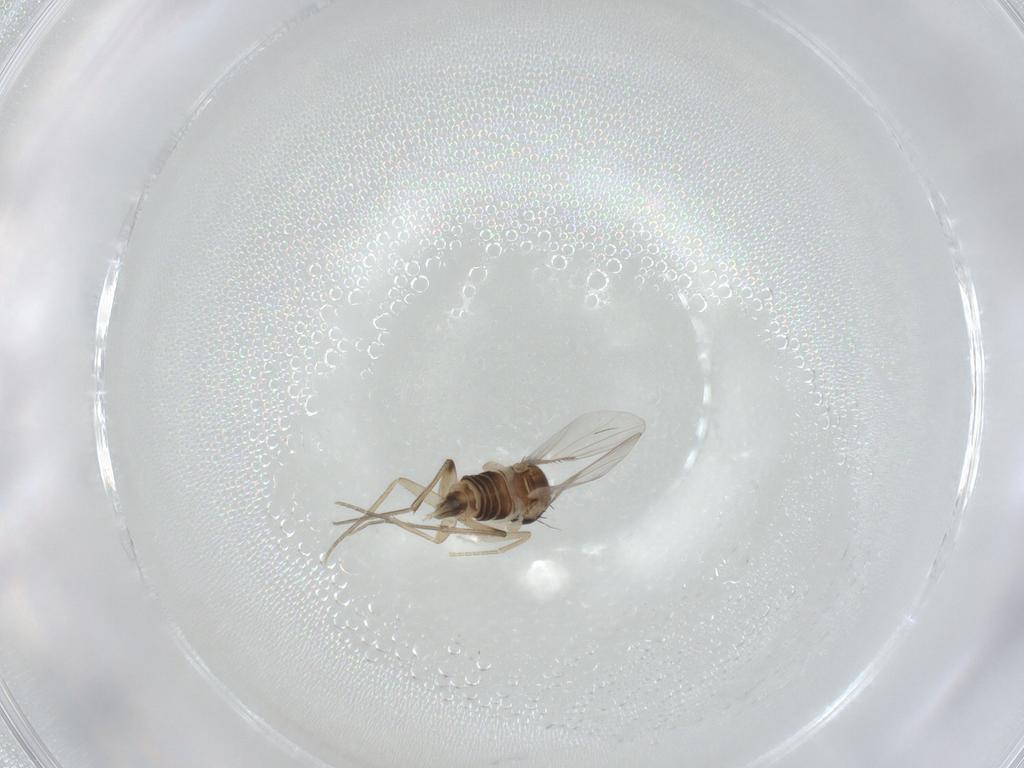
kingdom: Animalia
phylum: Arthropoda
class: Insecta
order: Diptera
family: Phoridae
